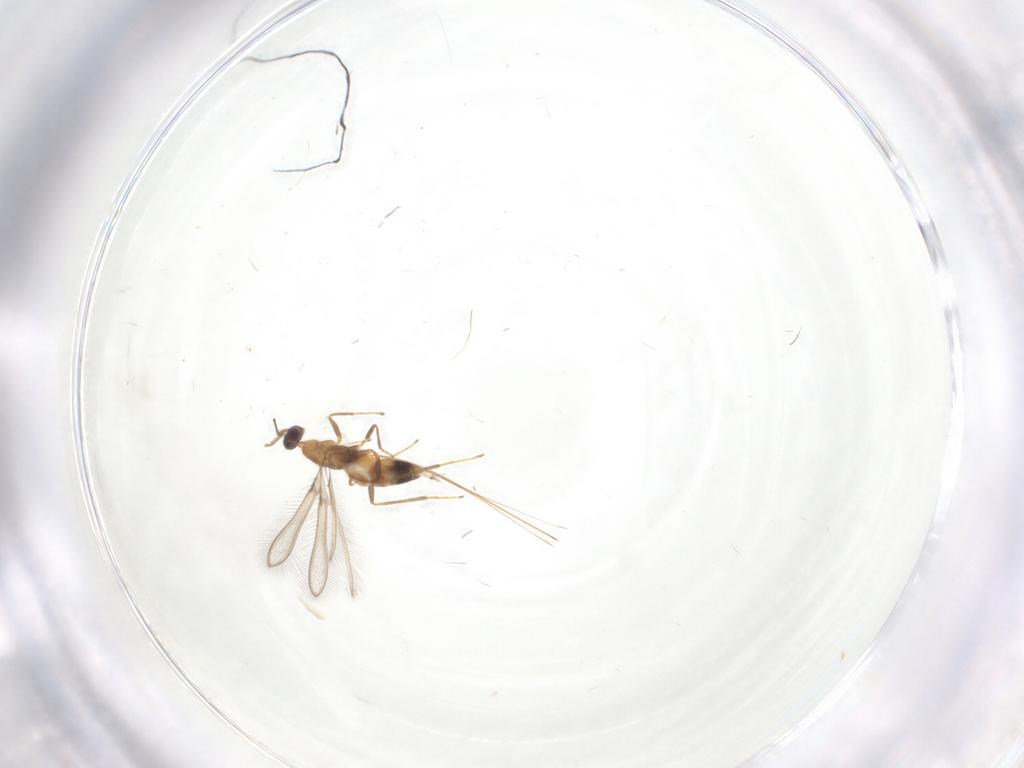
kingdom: Animalia
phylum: Arthropoda
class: Insecta
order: Hymenoptera
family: Mymaridae
